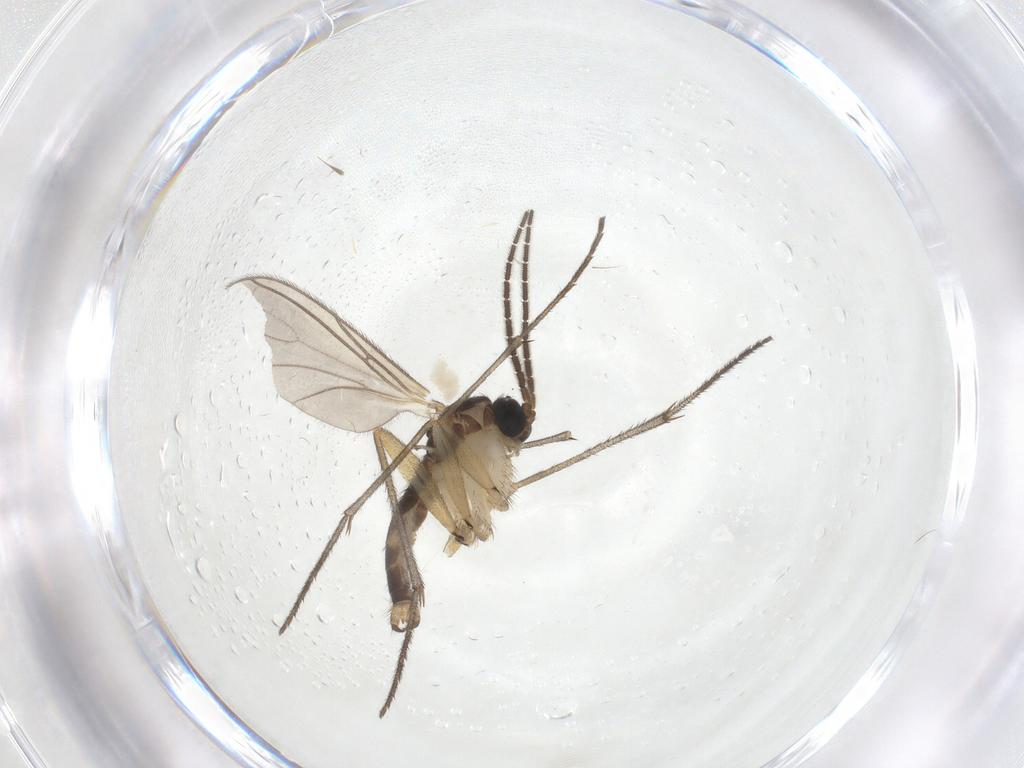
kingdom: Animalia
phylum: Arthropoda
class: Insecta
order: Diptera
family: Sciaridae
